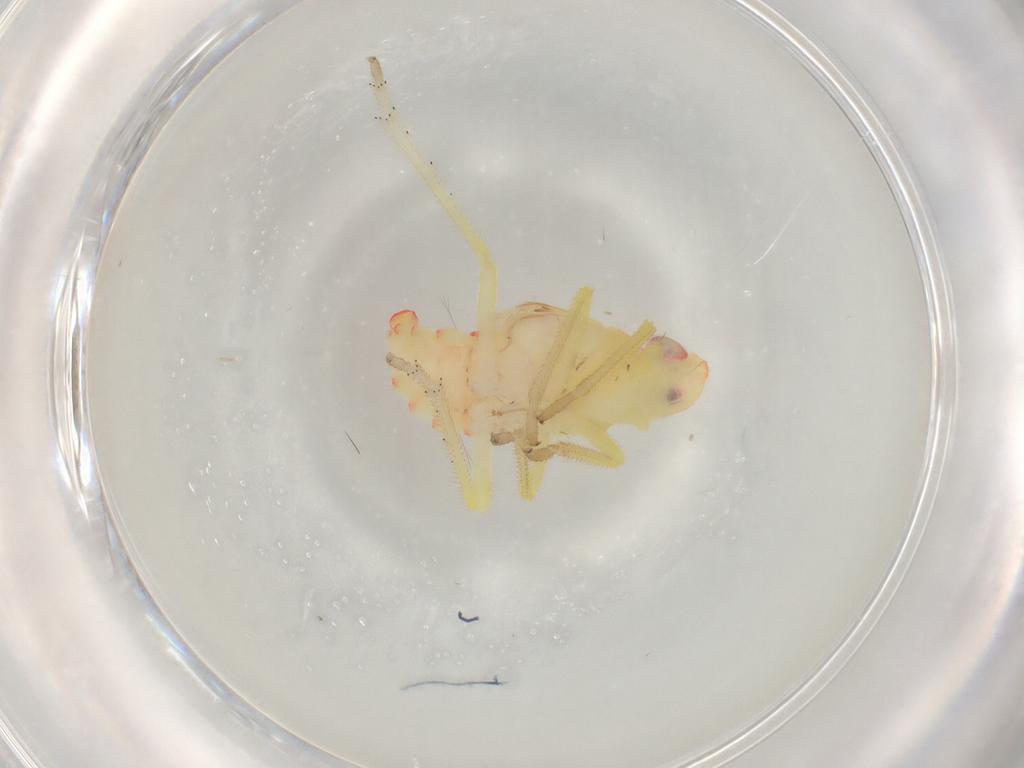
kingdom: Animalia
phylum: Arthropoda
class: Insecta
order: Hemiptera
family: Tropiduchidae
